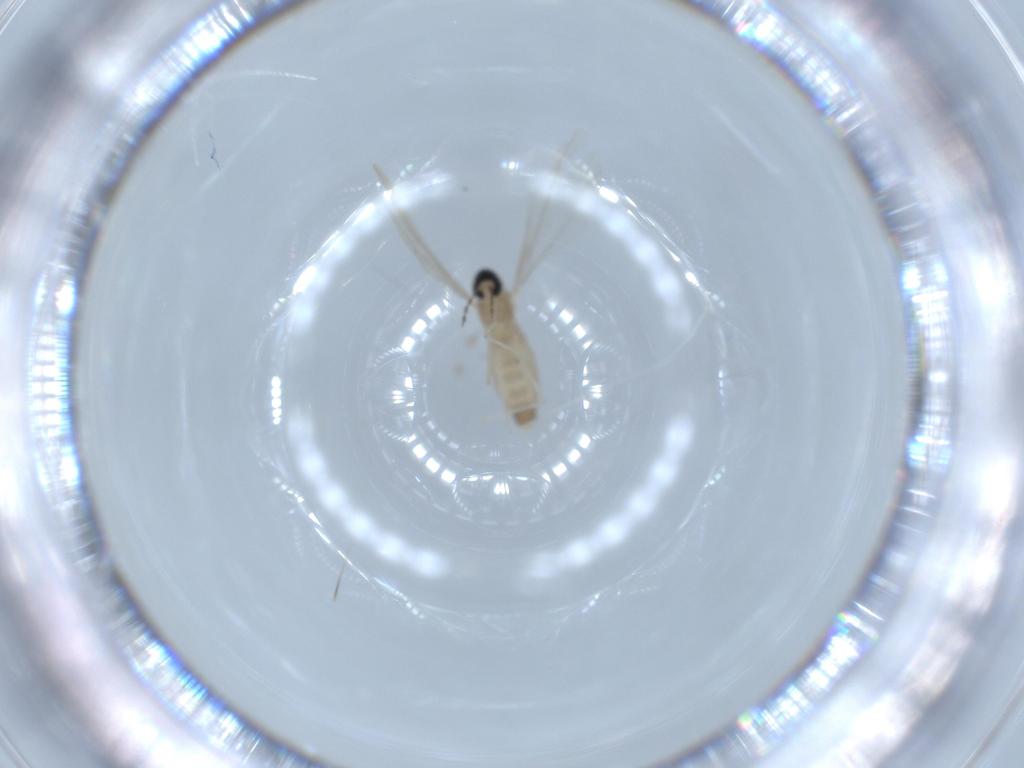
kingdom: Animalia
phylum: Arthropoda
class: Insecta
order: Diptera
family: Cecidomyiidae
